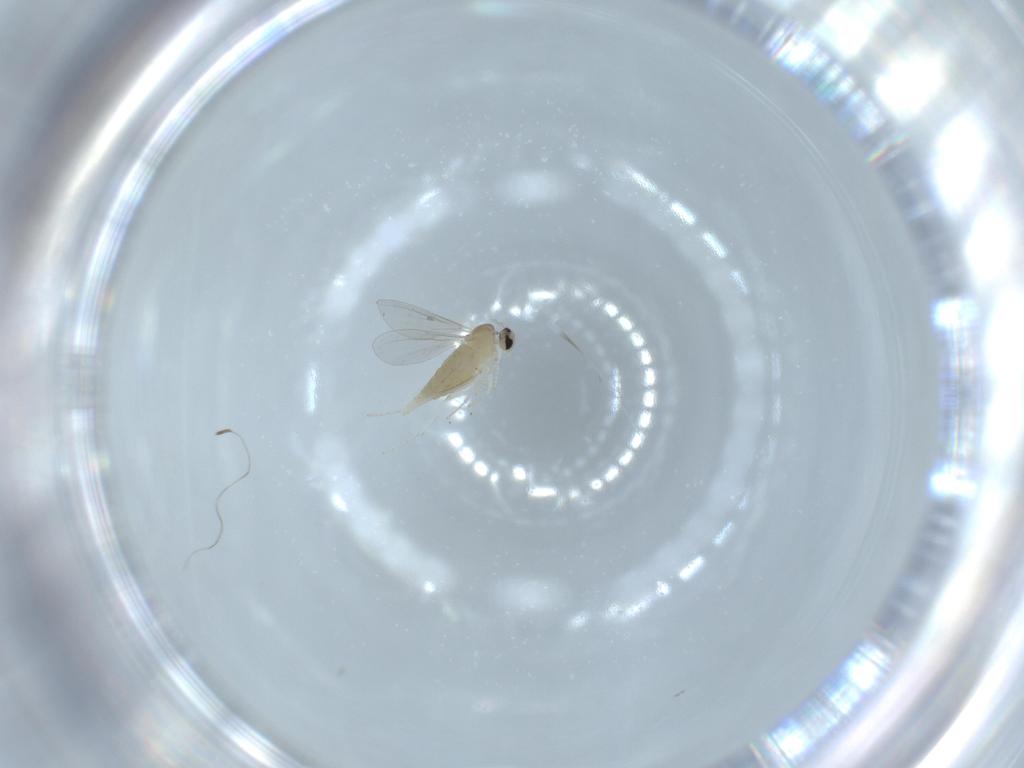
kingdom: Animalia
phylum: Arthropoda
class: Insecta
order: Diptera
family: Cecidomyiidae
